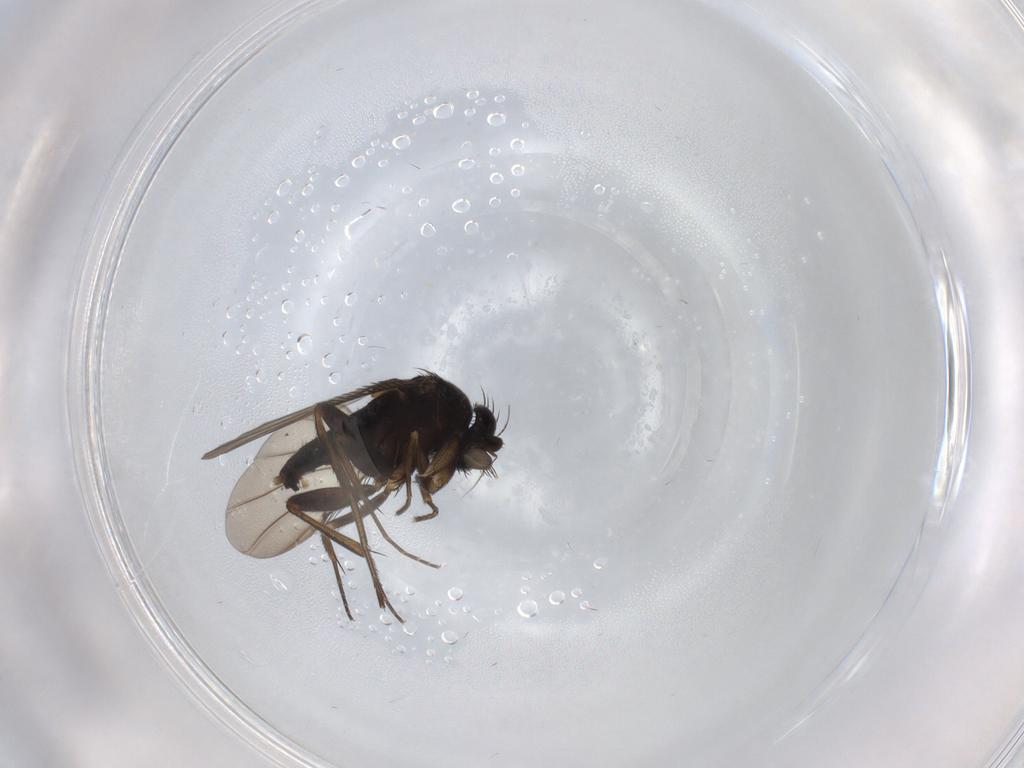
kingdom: Animalia
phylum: Arthropoda
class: Insecta
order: Diptera
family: Phoridae
